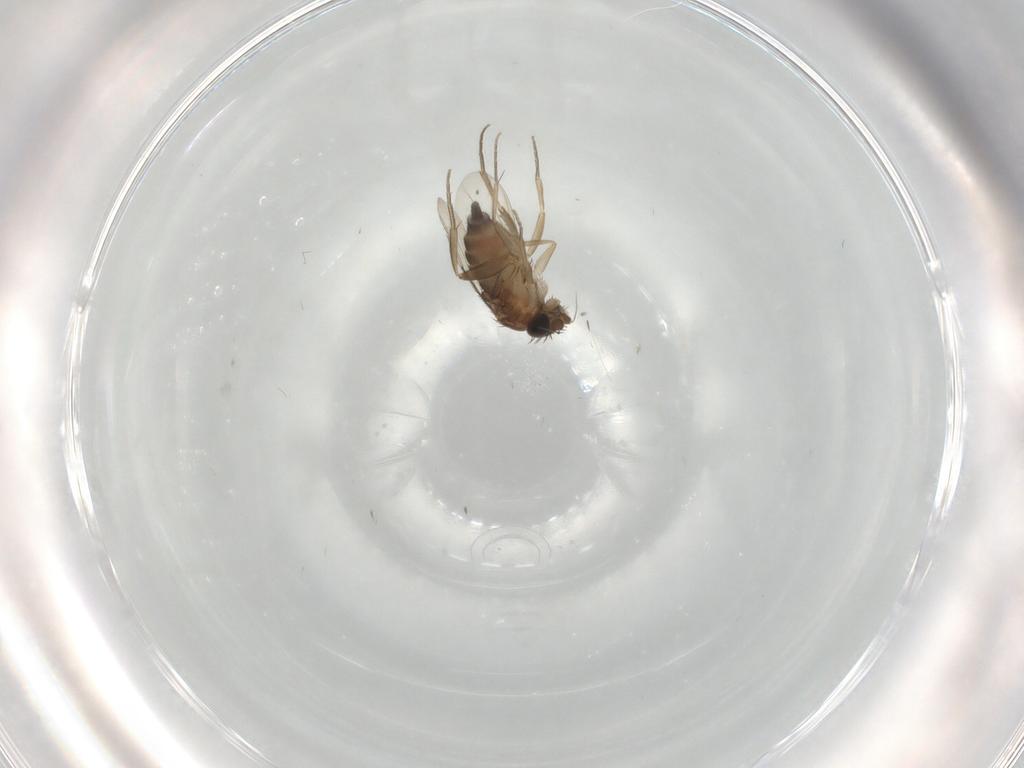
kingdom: Animalia
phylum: Arthropoda
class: Insecta
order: Diptera
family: Phoridae
